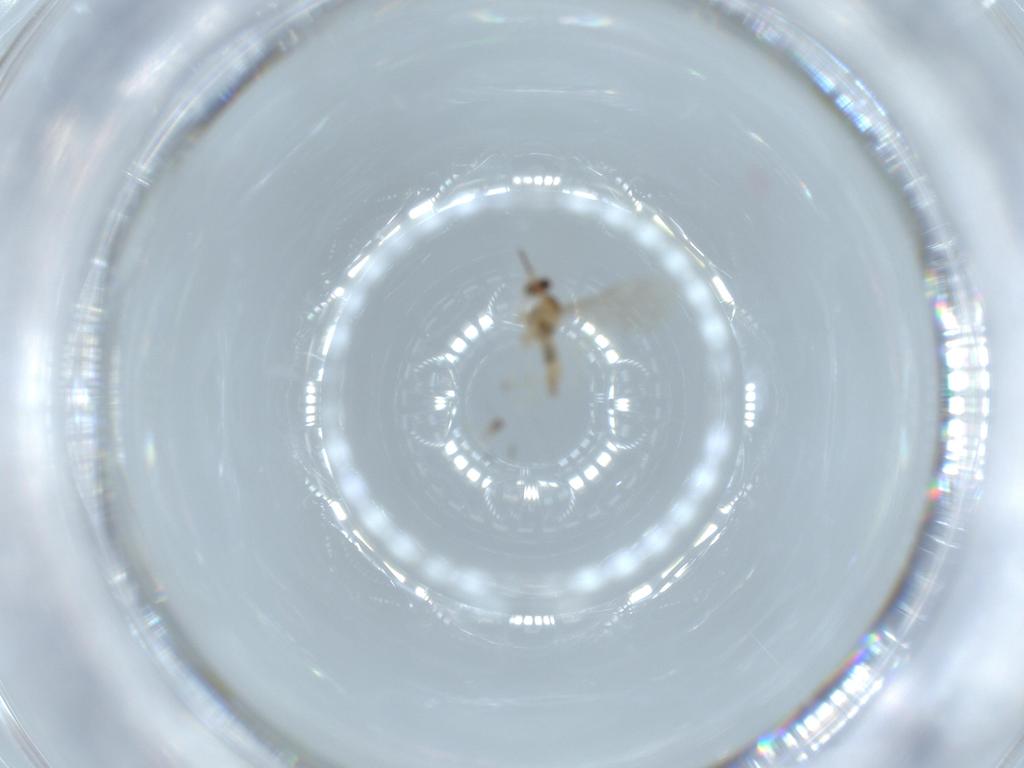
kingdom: Animalia
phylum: Arthropoda
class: Insecta
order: Diptera
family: Cecidomyiidae
